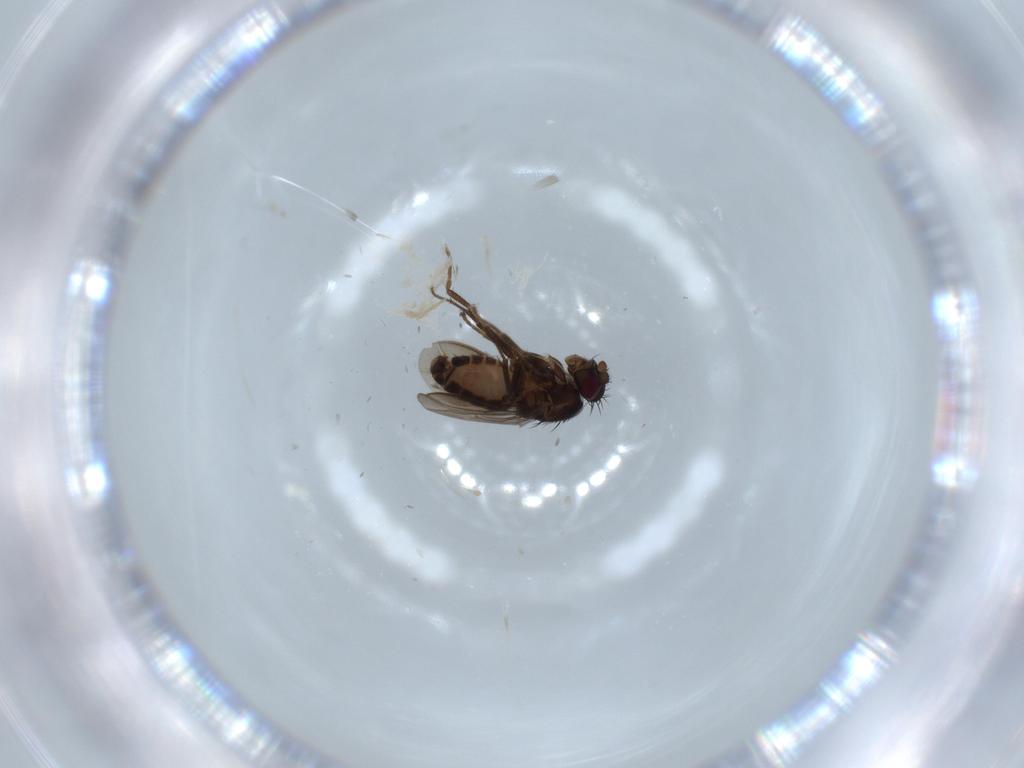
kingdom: Animalia
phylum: Arthropoda
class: Insecta
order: Diptera
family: Sphaeroceridae
